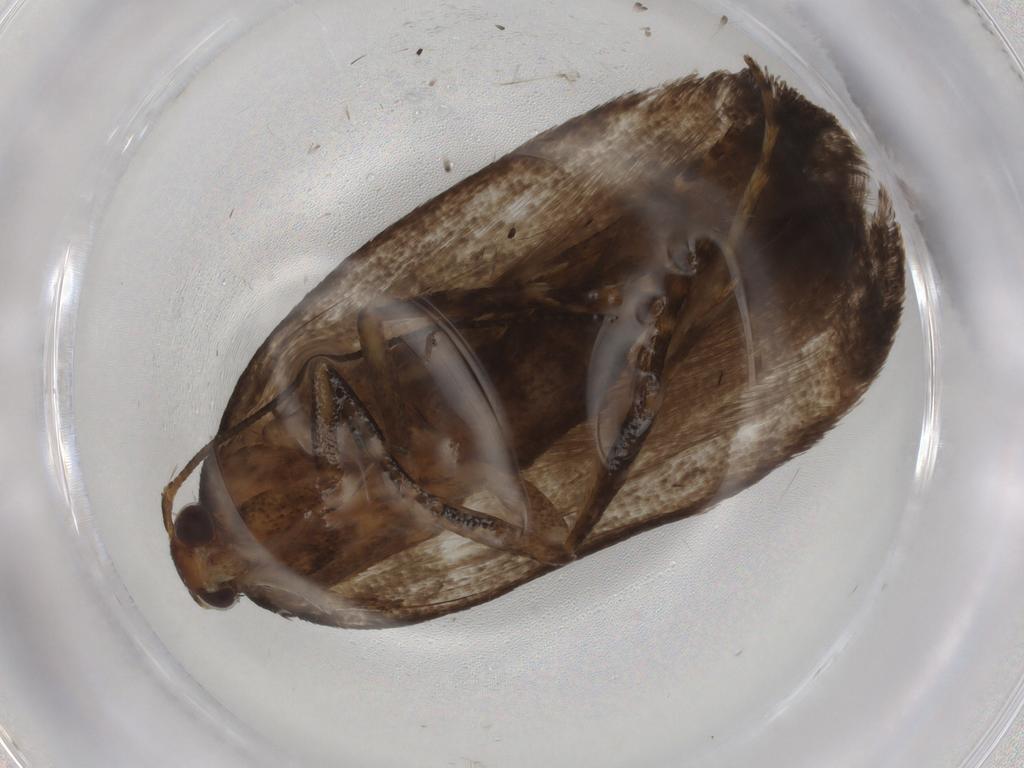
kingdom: Animalia
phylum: Arthropoda
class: Insecta
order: Lepidoptera
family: Gelechiidae
